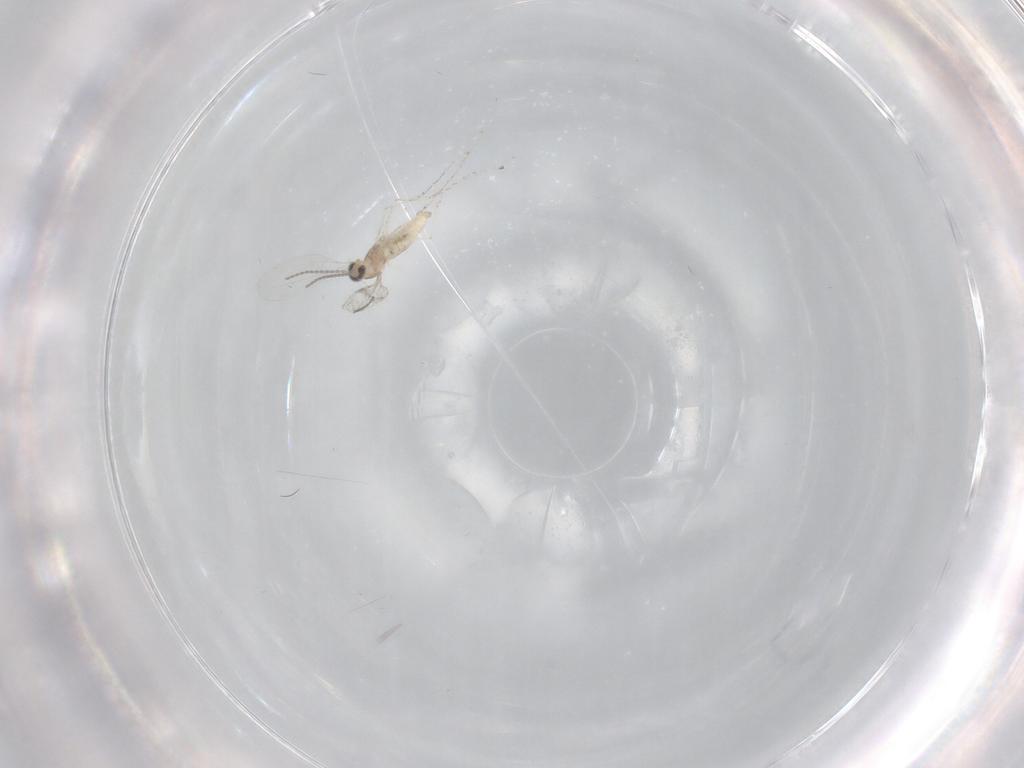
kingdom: Animalia
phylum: Arthropoda
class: Insecta
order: Diptera
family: Cecidomyiidae
